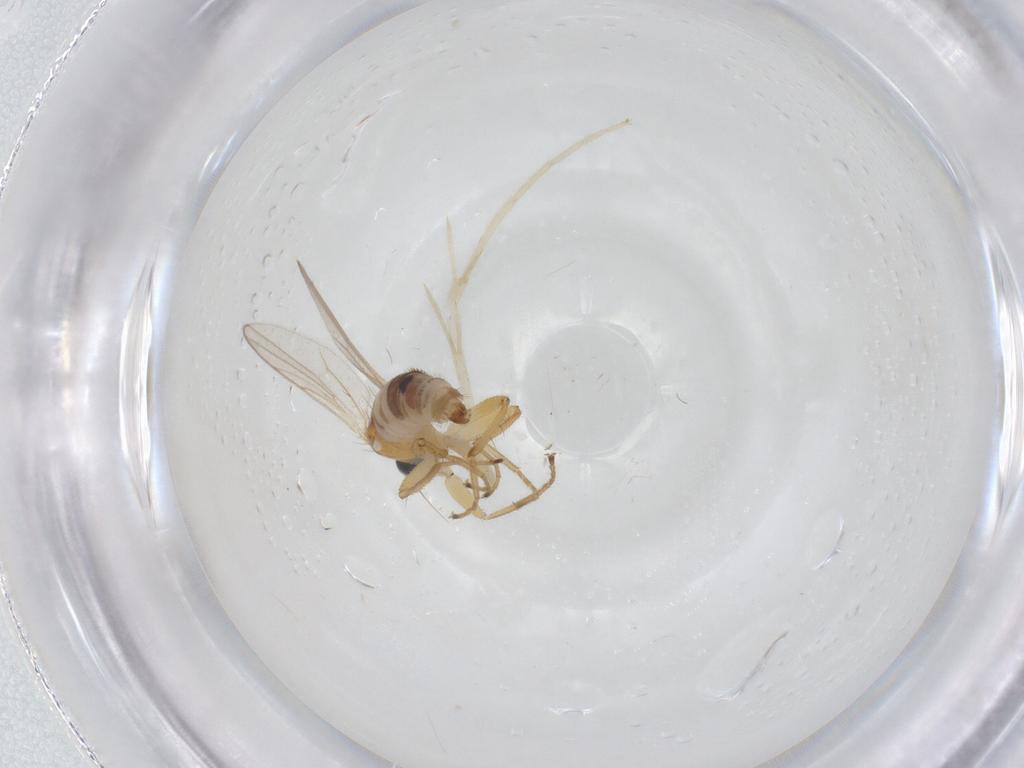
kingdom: Animalia
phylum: Arthropoda
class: Insecta
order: Diptera
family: Hybotidae
